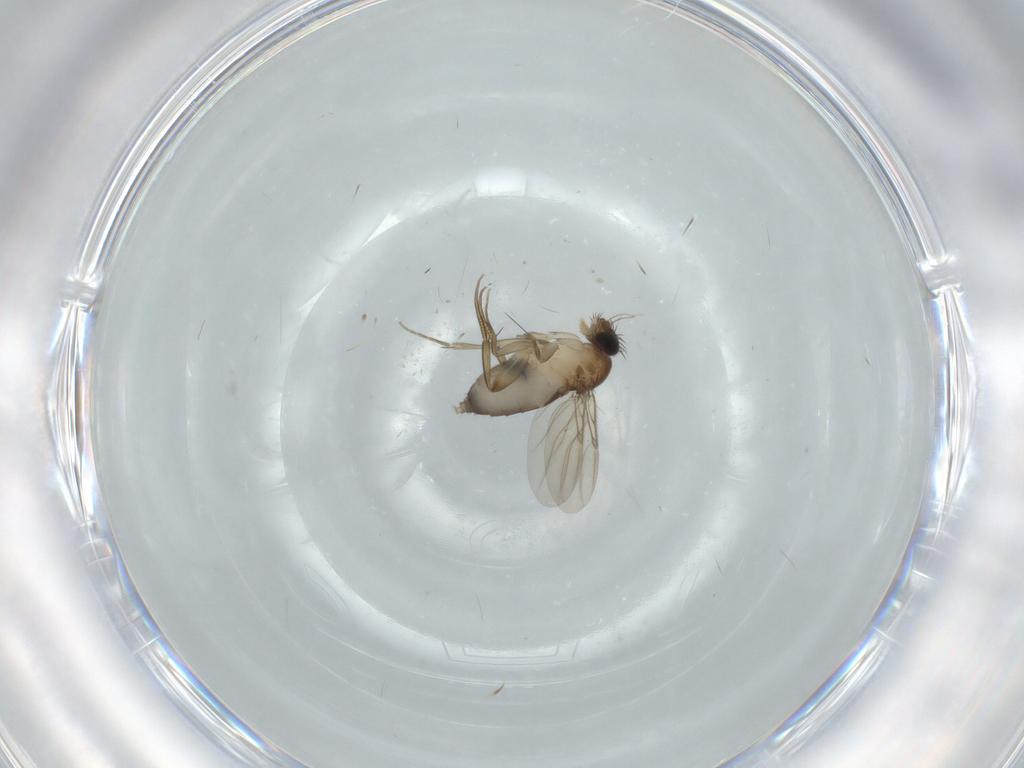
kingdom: Animalia
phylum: Arthropoda
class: Insecta
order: Diptera
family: Phoridae
